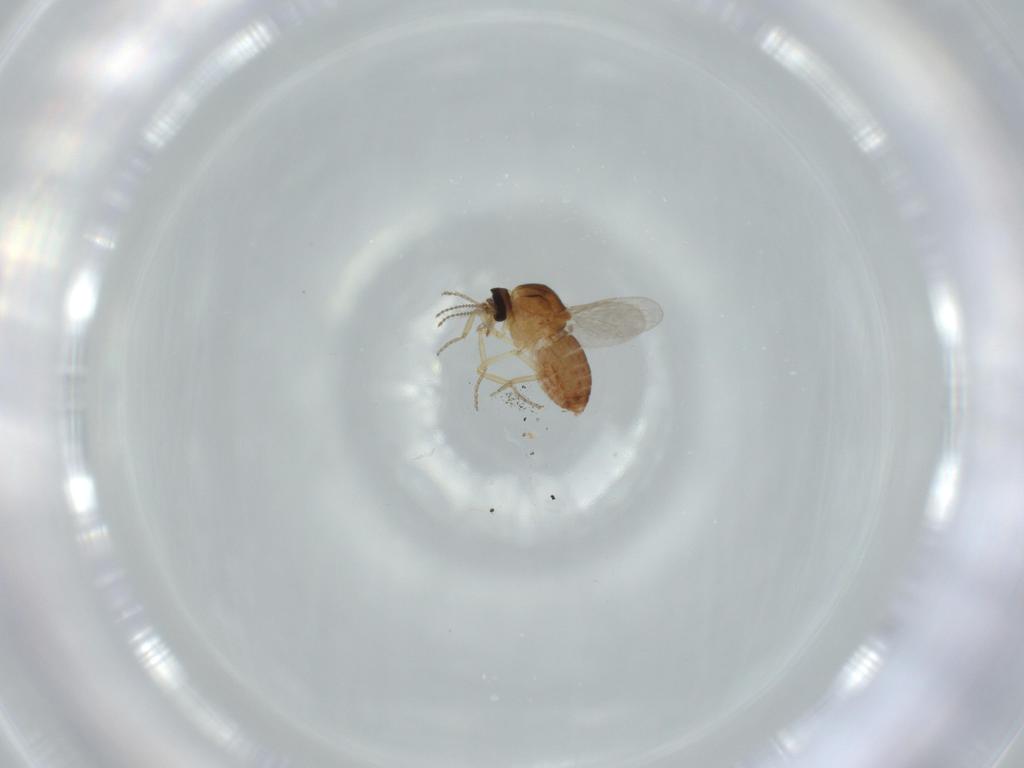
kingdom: Animalia
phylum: Arthropoda
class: Insecta
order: Diptera
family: Ceratopogonidae
